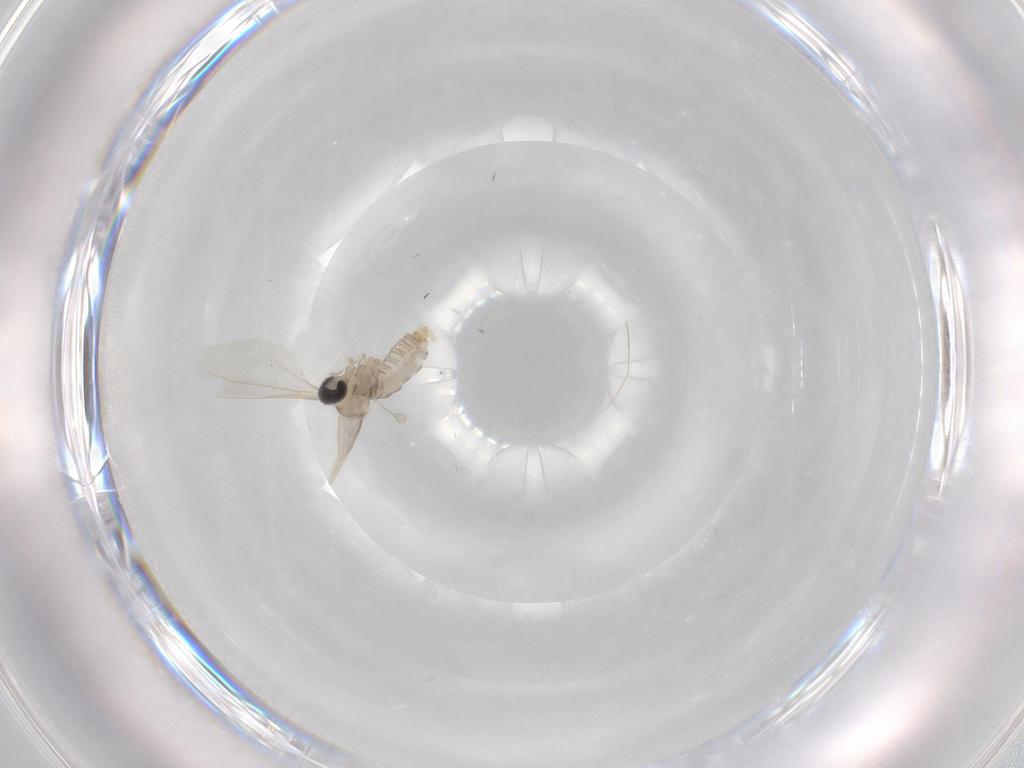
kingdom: Animalia
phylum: Arthropoda
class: Insecta
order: Diptera
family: Cecidomyiidae
